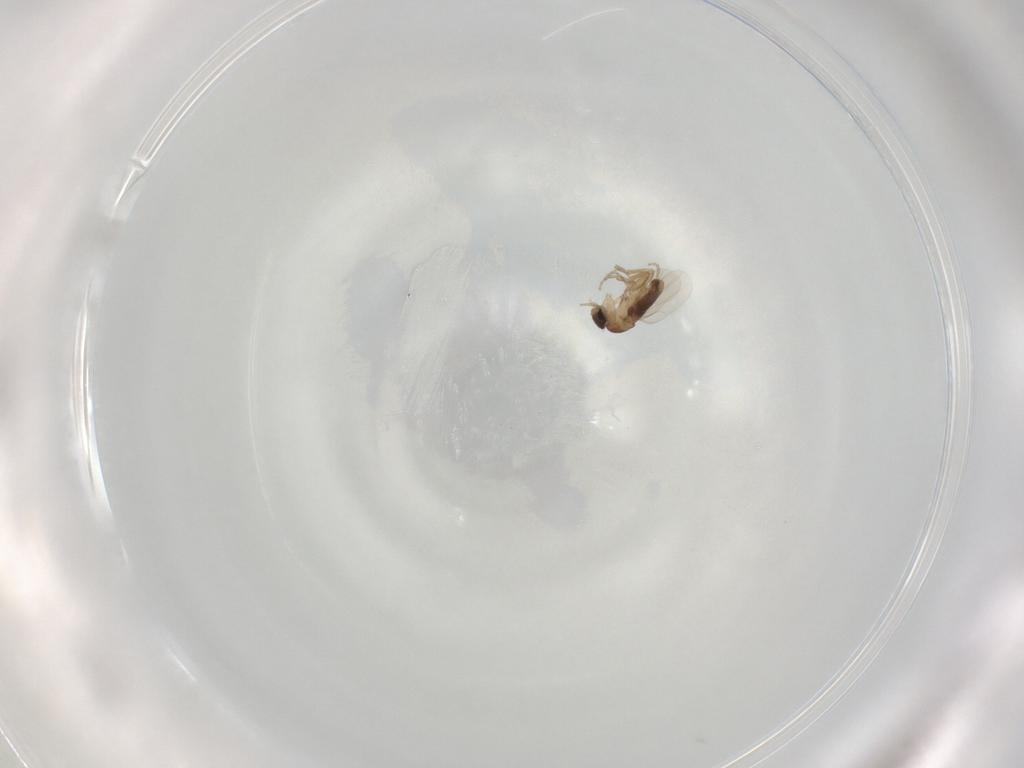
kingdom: Animalia
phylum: Arthropoda
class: Insecta
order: Diptera
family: Phoridae
